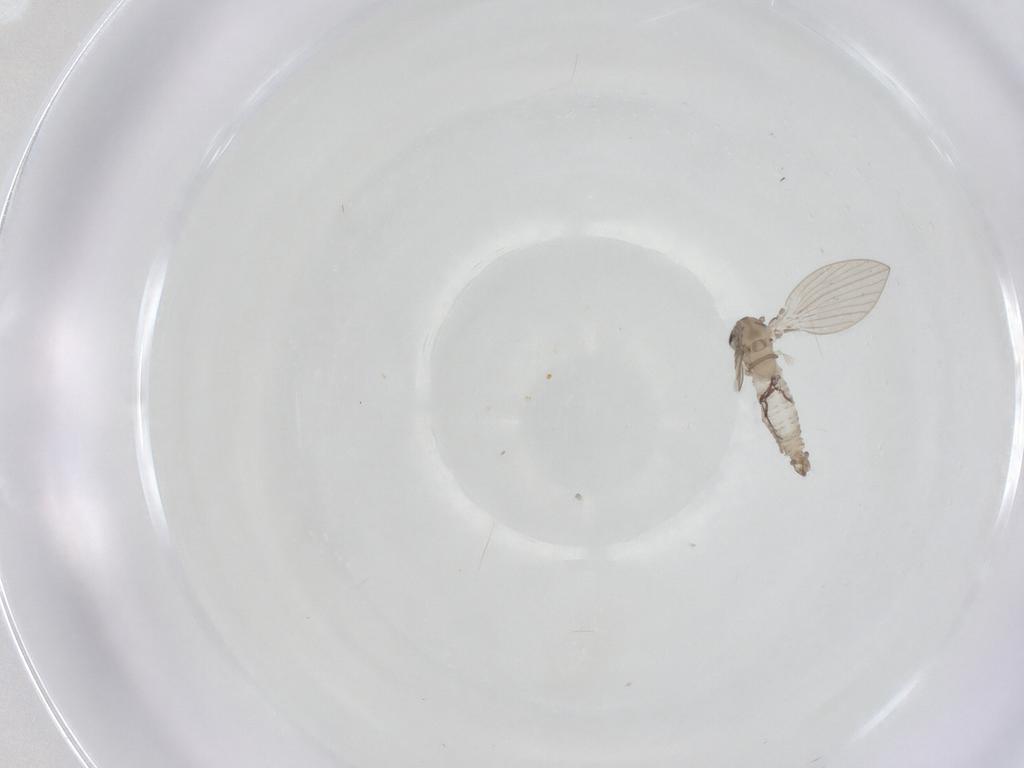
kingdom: Animalia
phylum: Arthropoda
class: Insecta
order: Diptera
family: Psychodidae
